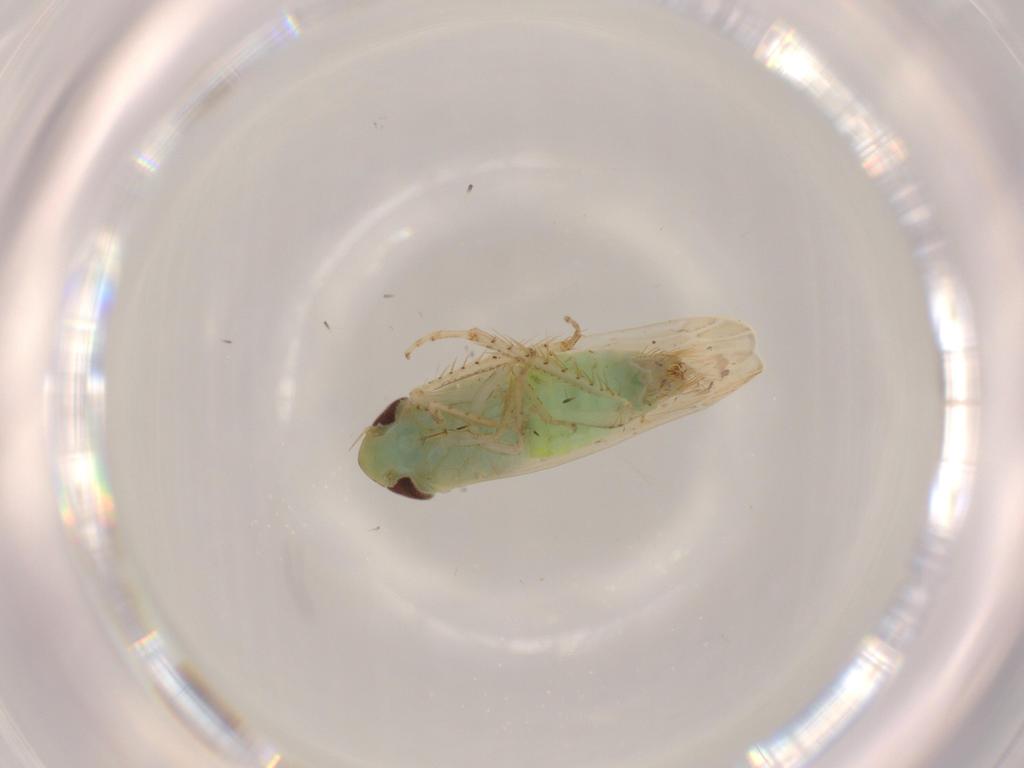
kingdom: Animalia
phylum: Arthropoda
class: Insecta
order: Hemiptera
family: Cicadellidae
